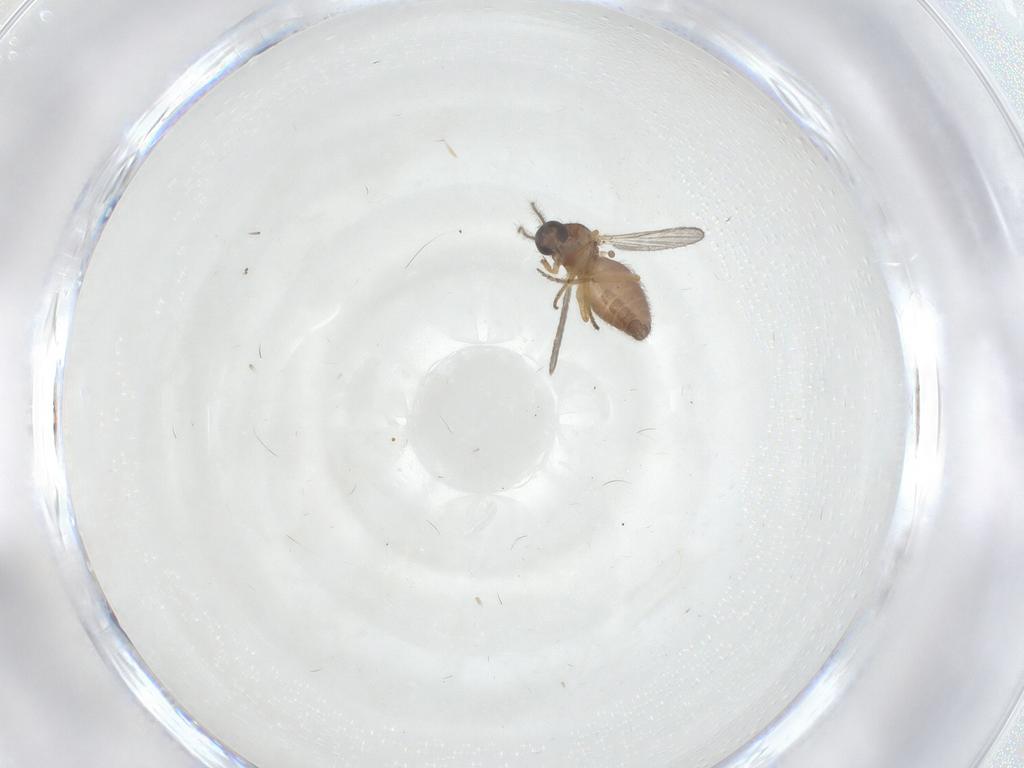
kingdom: Animalia
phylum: Arthropoda
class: Insecta
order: Diptera
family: Ceratopogonidae
